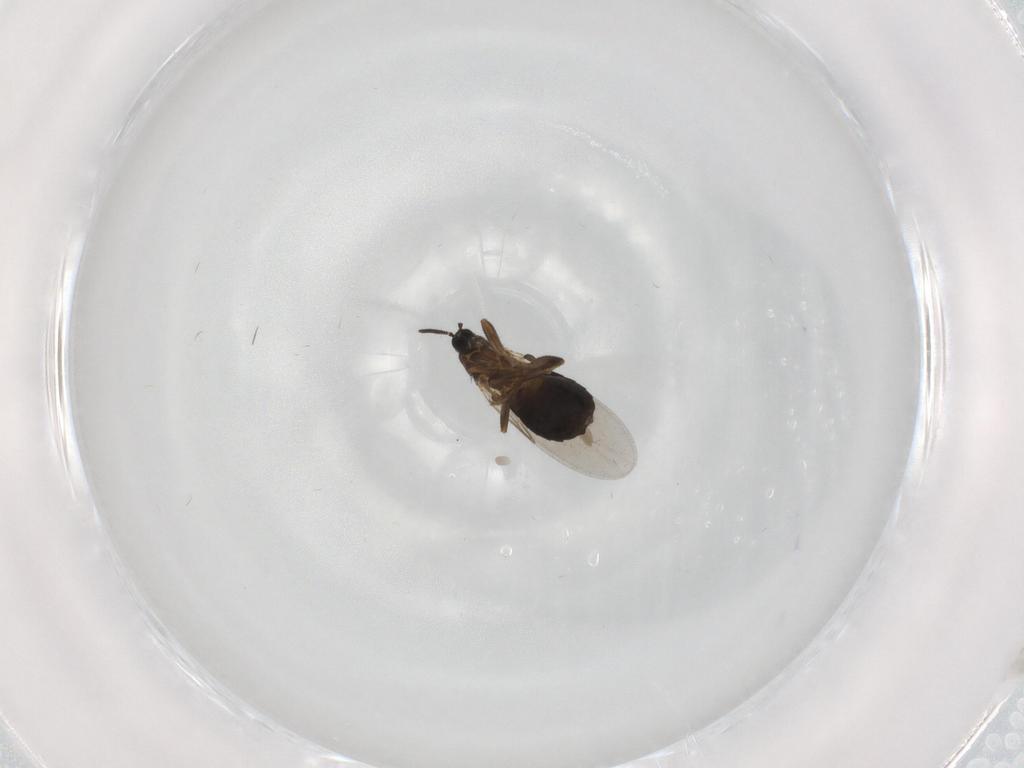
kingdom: Animalia
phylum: Arthropoda
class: Insecta
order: Diptera
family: Scatopsidae
